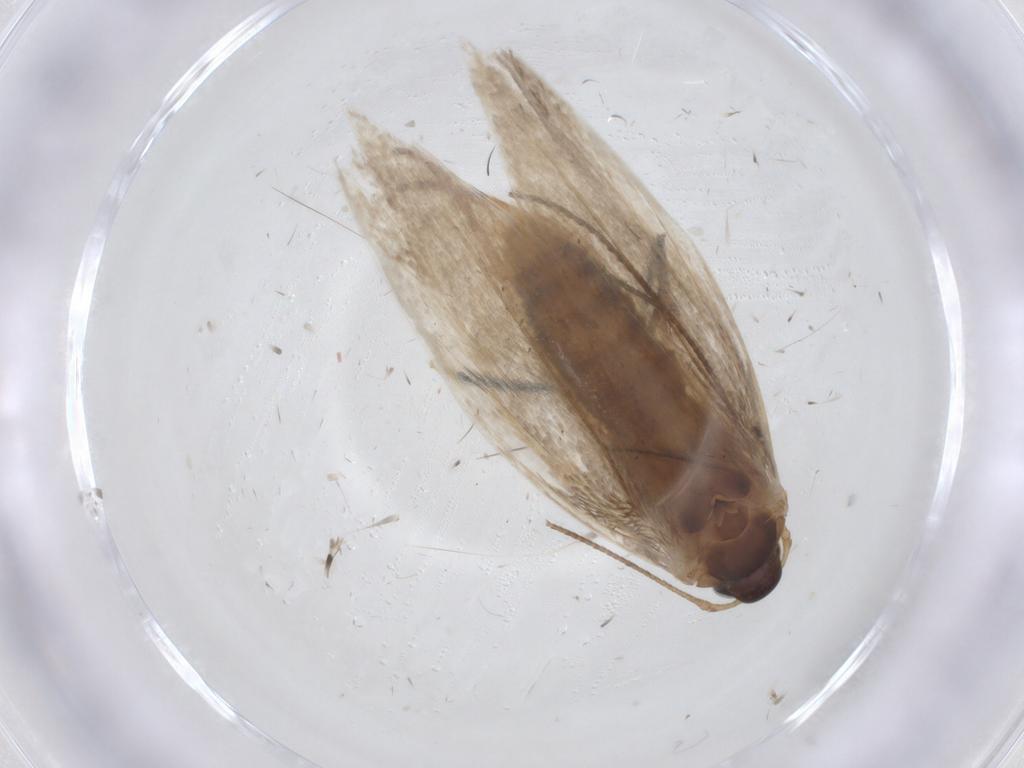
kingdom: Animalia
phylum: Arthropoda
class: Insecta
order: Lepidoptera
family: Erebidae
